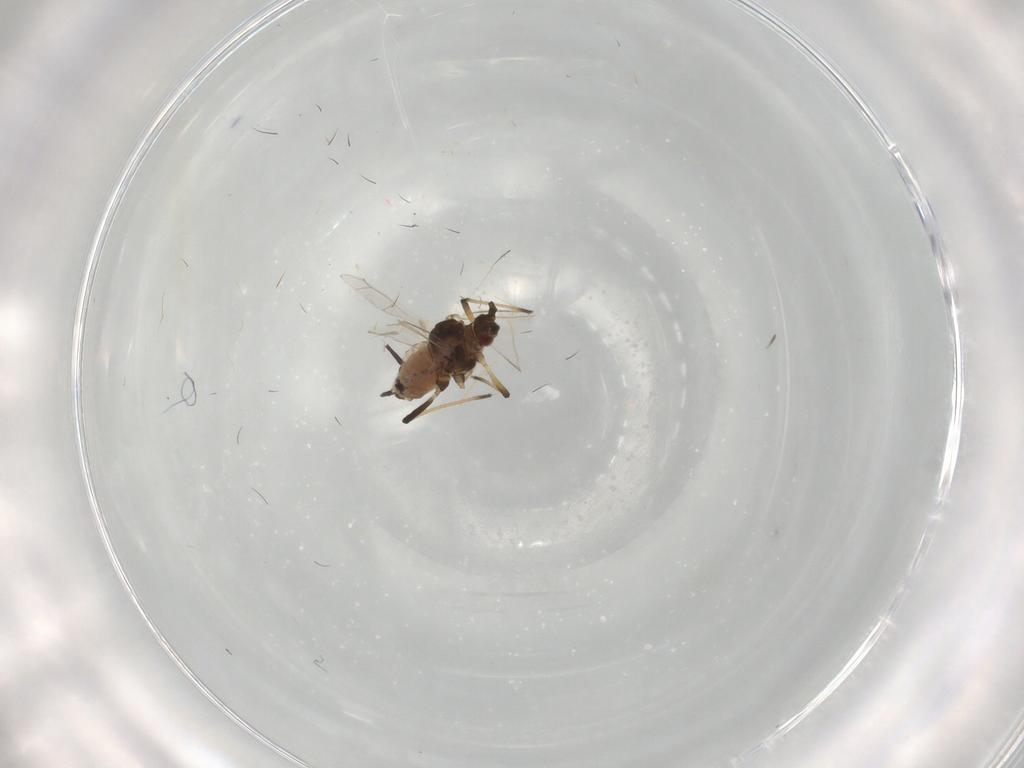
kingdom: Animalia
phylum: Arthropoda
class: Insecta
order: Hemiptera
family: Aphididae
